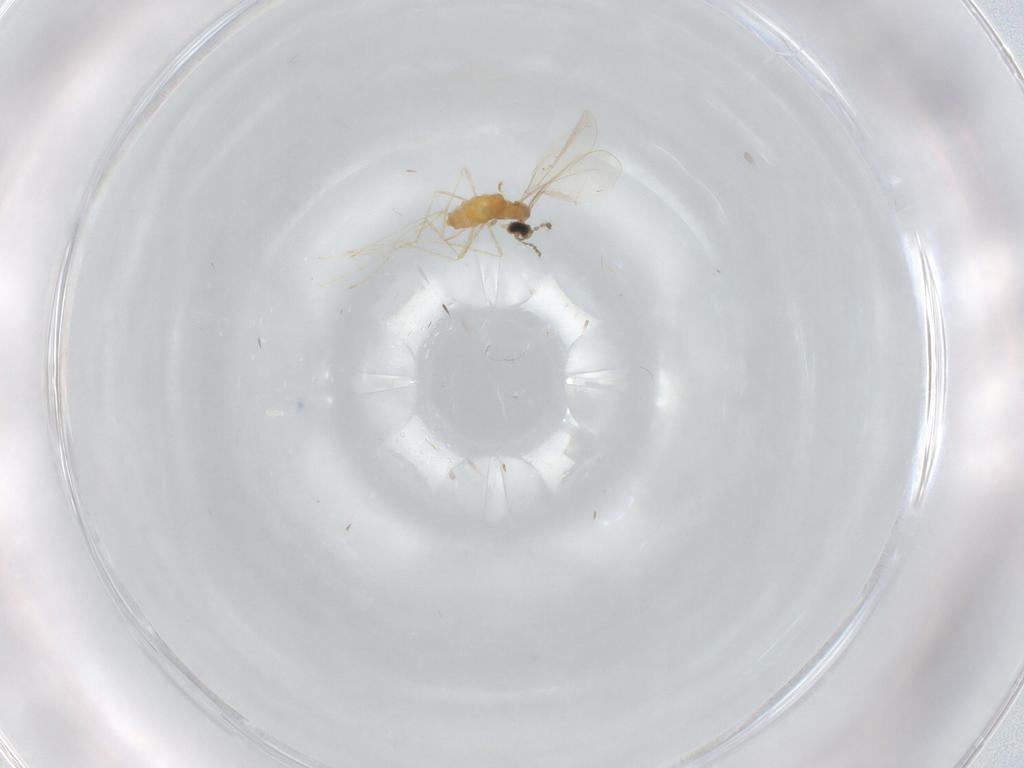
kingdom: Animalia
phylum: Arthropoda
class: Insecta
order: Diptera
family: Cecidomyiidae
